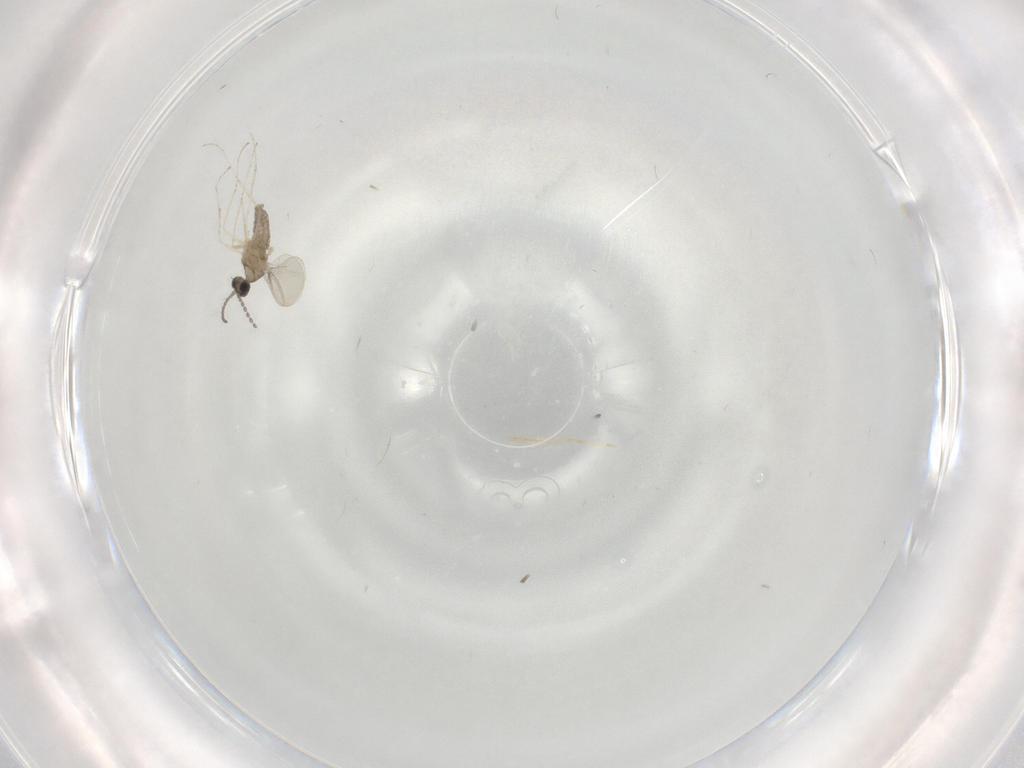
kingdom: Animalia
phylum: Arthropoda
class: Insecta
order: Diptera
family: Cecidomyiidae
